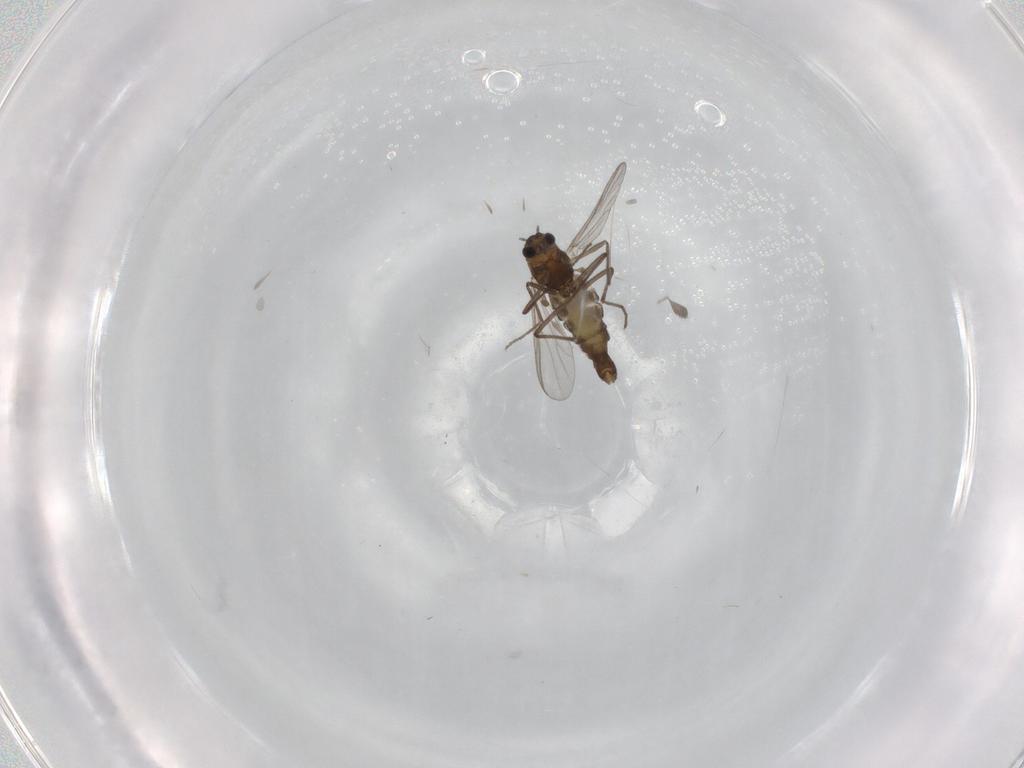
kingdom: Animalia
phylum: Arthropoda
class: Insecta
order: Diptera
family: Chironomidae
